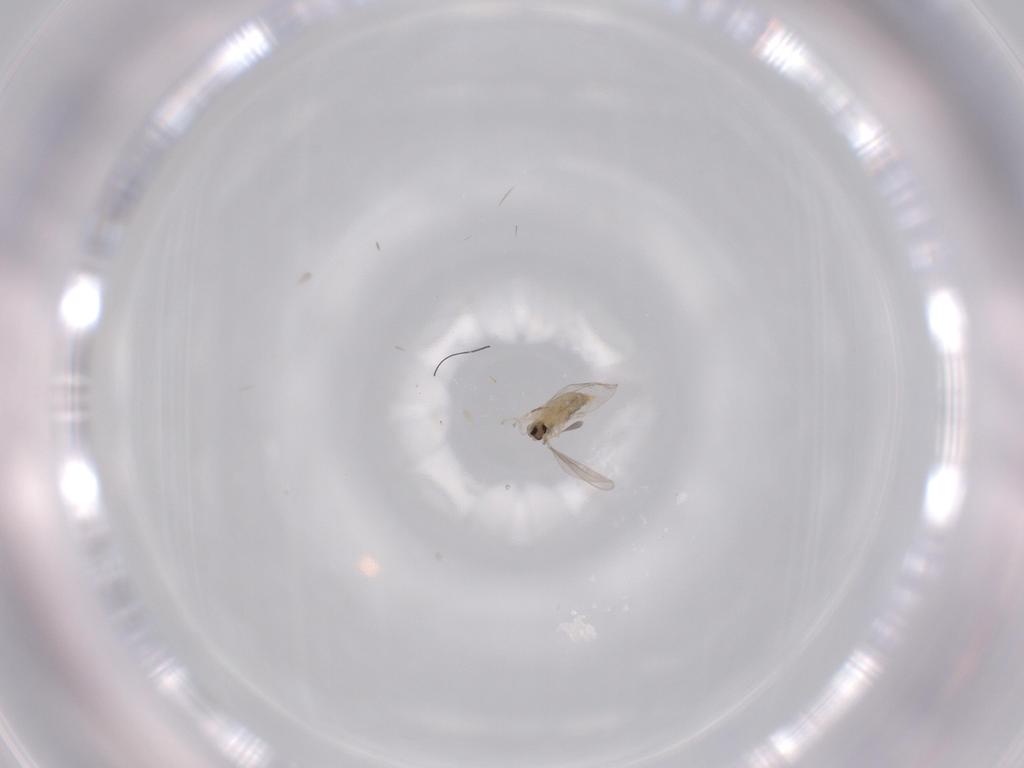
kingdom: Animalia
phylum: Arthropoda
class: Insecta
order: Diptera
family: Cecidomyiidae
